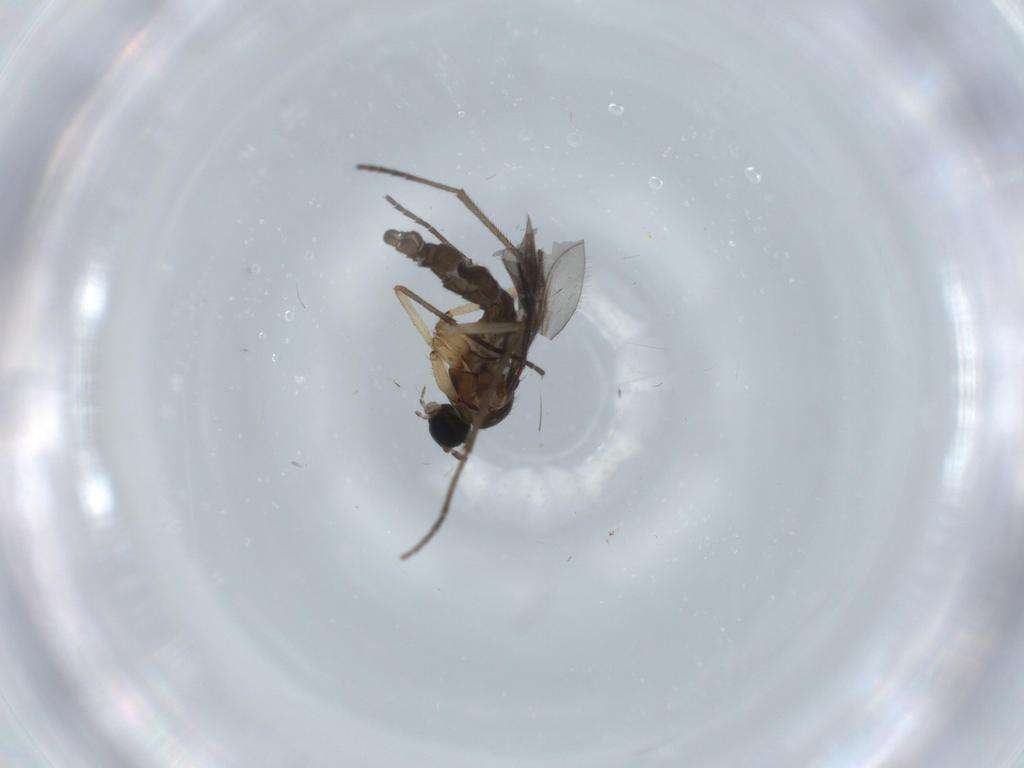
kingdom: Animalia
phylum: Arthropoda
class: Insecta
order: Diptera
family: Cecidomyiidae
